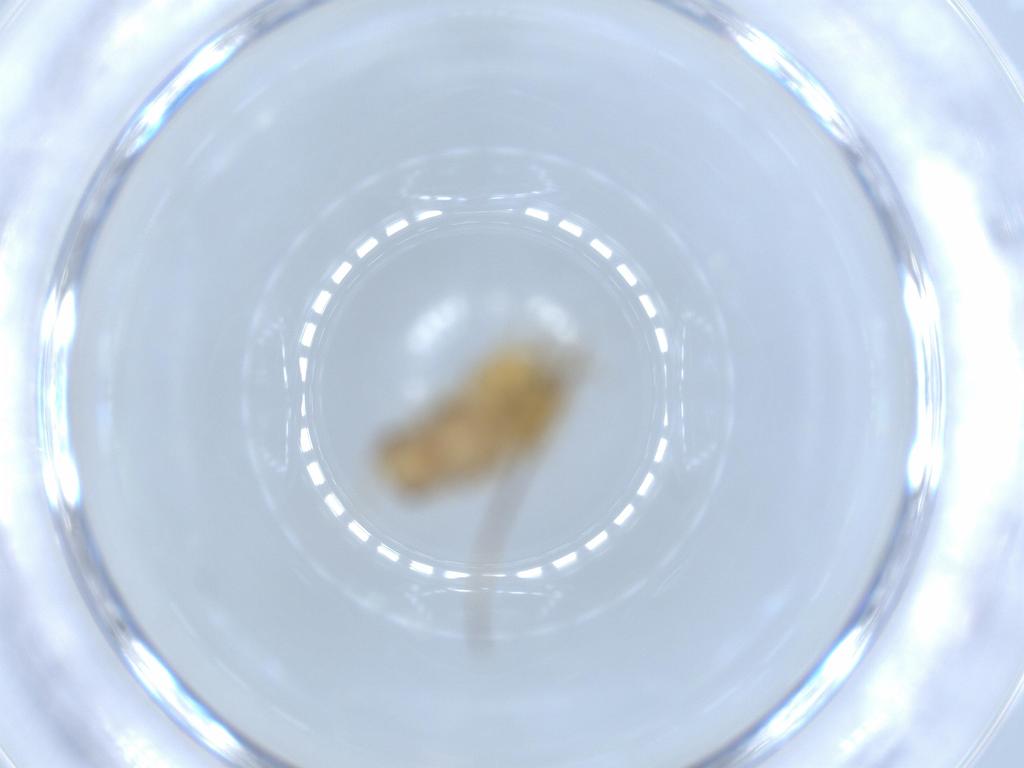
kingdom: Animalia
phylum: Arthropoda
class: Insecta
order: Blattodea
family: Ectobiidae
